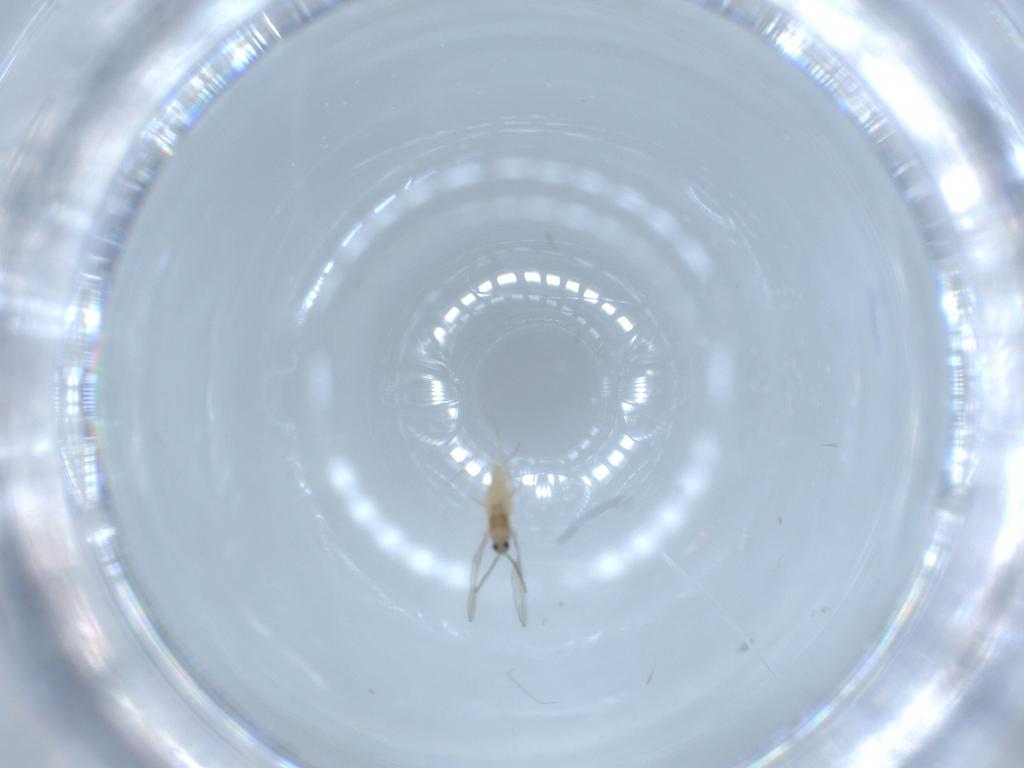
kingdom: Animalia
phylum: Arthropoda
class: Insecta
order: Diptera
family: Cecidomyiidae
